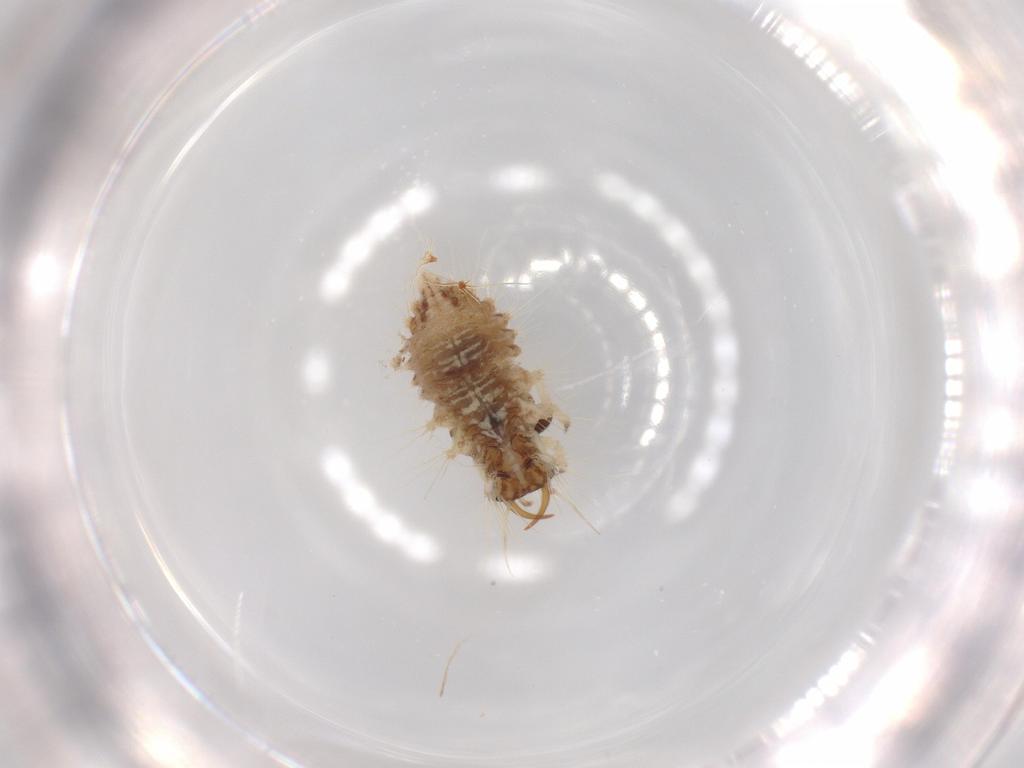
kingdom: Animalia
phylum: Arthropoda
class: Insecta
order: Neuroptera
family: Chrysopidae
